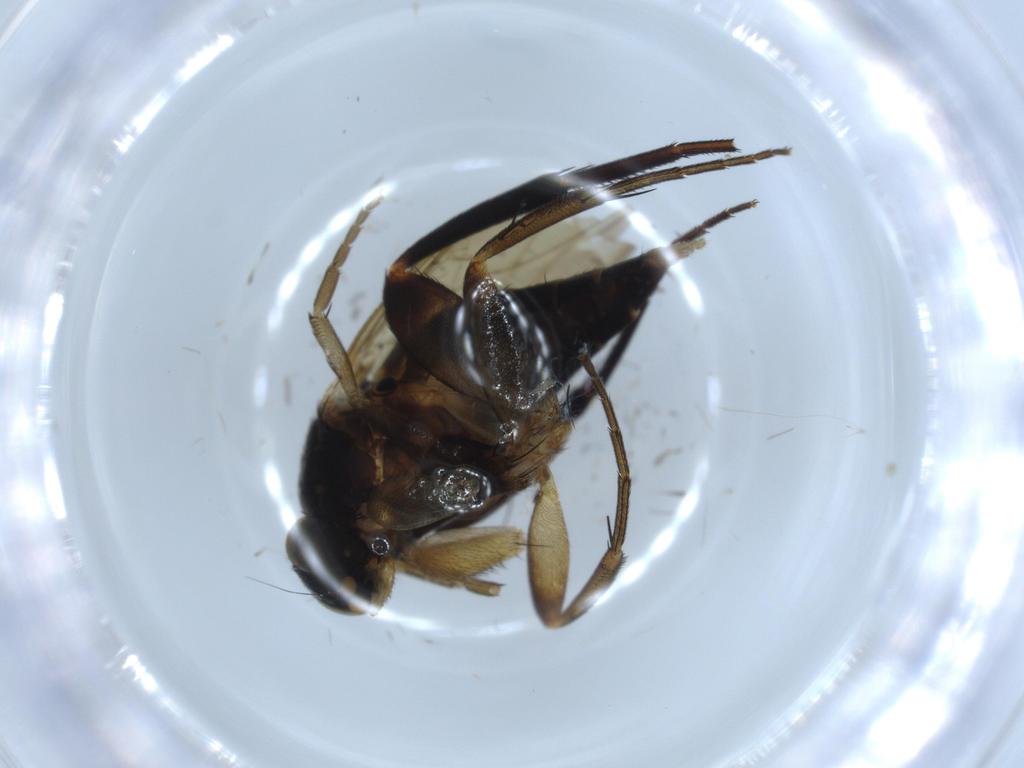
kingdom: Animalia
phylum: Arthropoda
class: Insecta
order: Diptera
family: Phoridae
